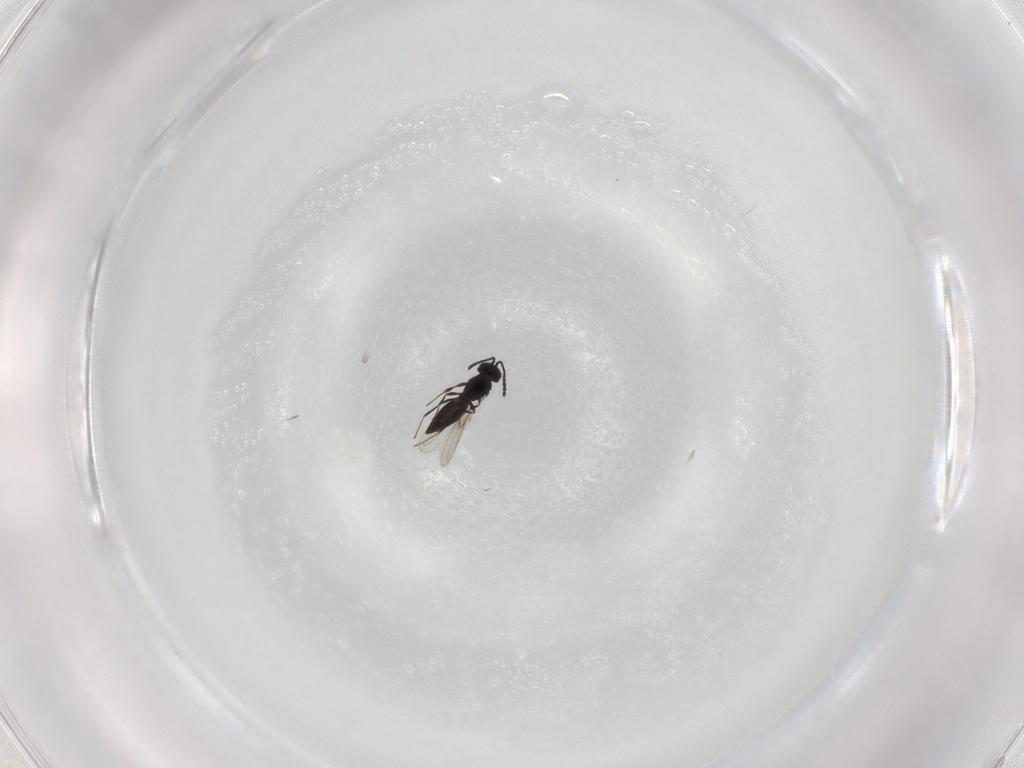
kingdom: Animalia
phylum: Arthropoda
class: Insecta
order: Hymenoptera
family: Scelionidae
